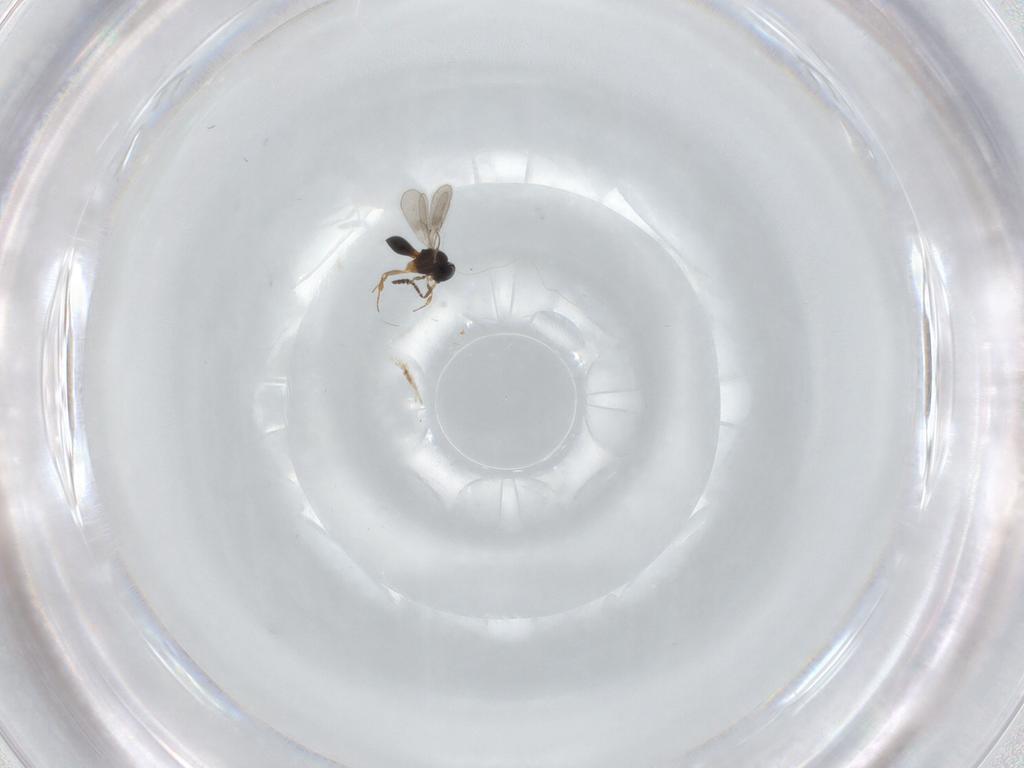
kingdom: Animalia
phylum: Arthropoda
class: Insecta
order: Hymenoptera
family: Scelionidae
